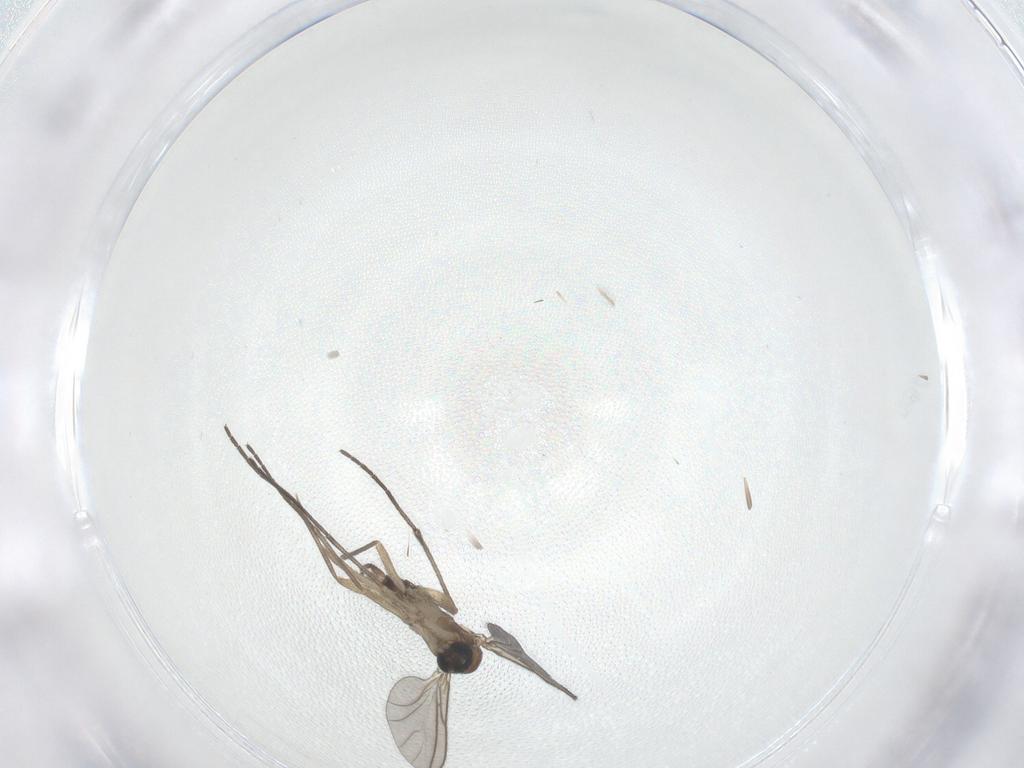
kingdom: Animalia
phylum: Arthropoda
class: Insecta
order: Diptera
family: Sciaridae
